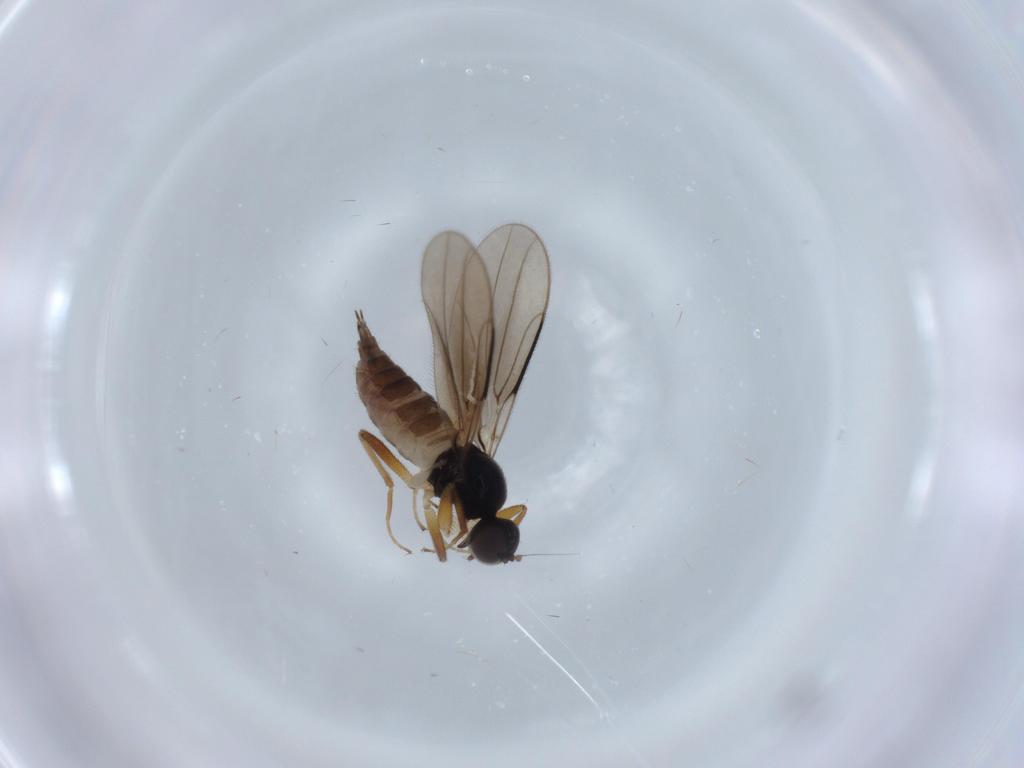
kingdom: Animalia
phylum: Arthropoda
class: Insecta
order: Diptera
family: Hybotidae
